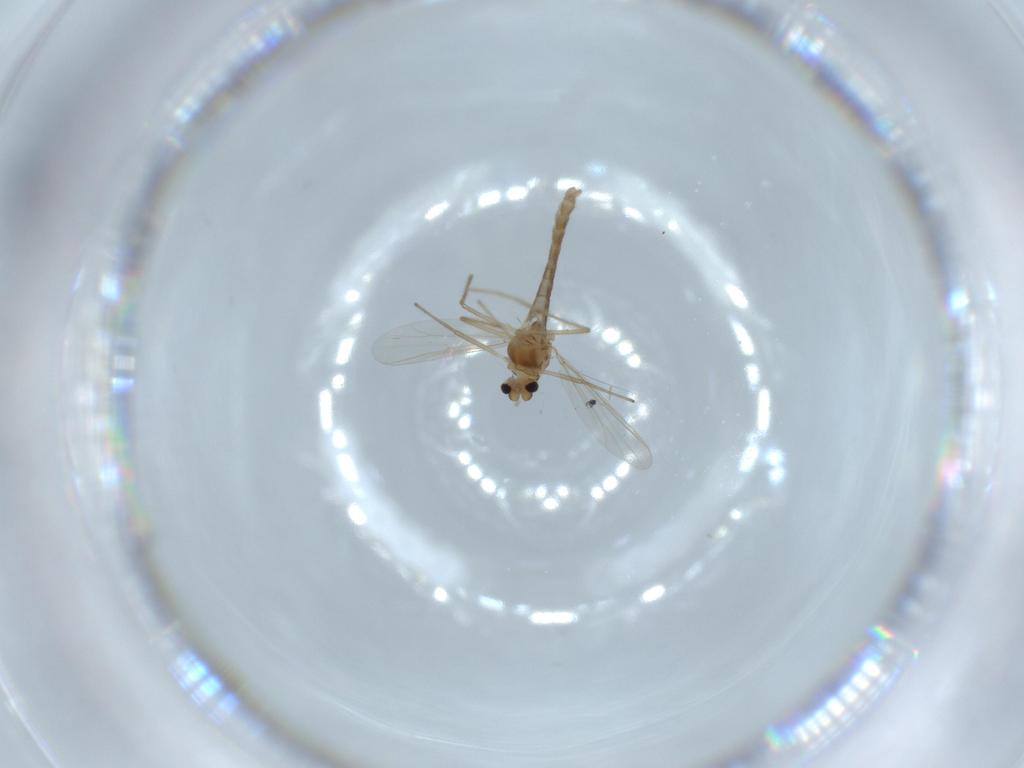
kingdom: Animalia
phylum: Arthropoda
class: Insecta
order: Diptera
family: Chironomidae
